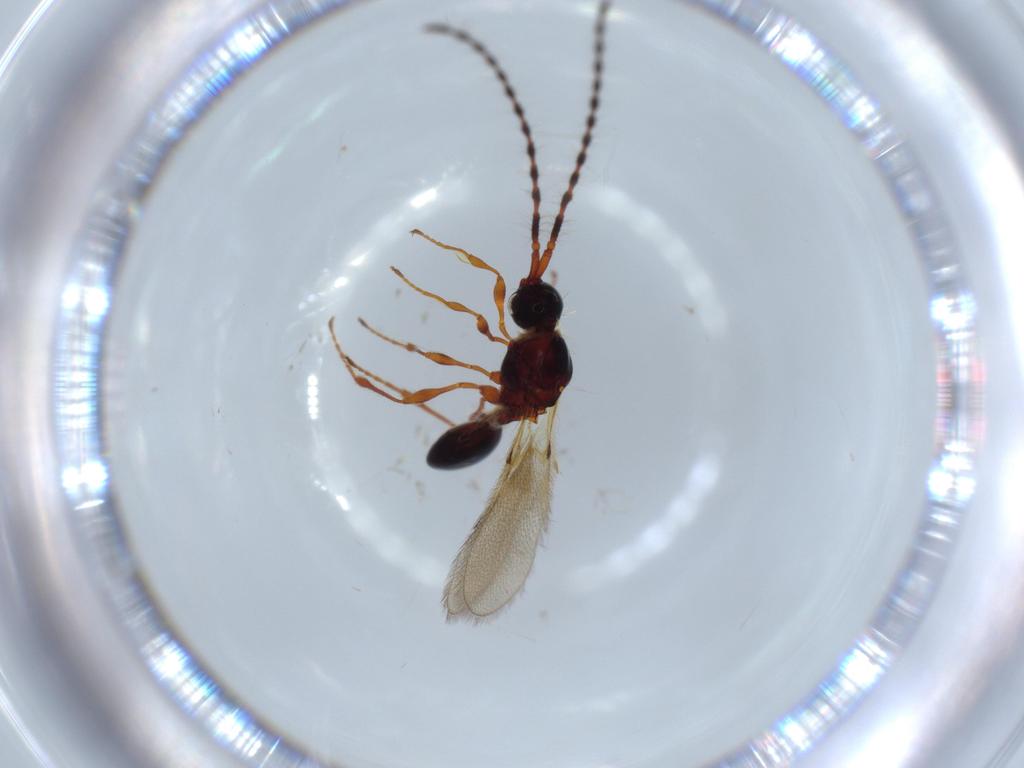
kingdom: Animalia
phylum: Arthropoda
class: Insecta
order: Hymenoptera
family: Diapriidae
